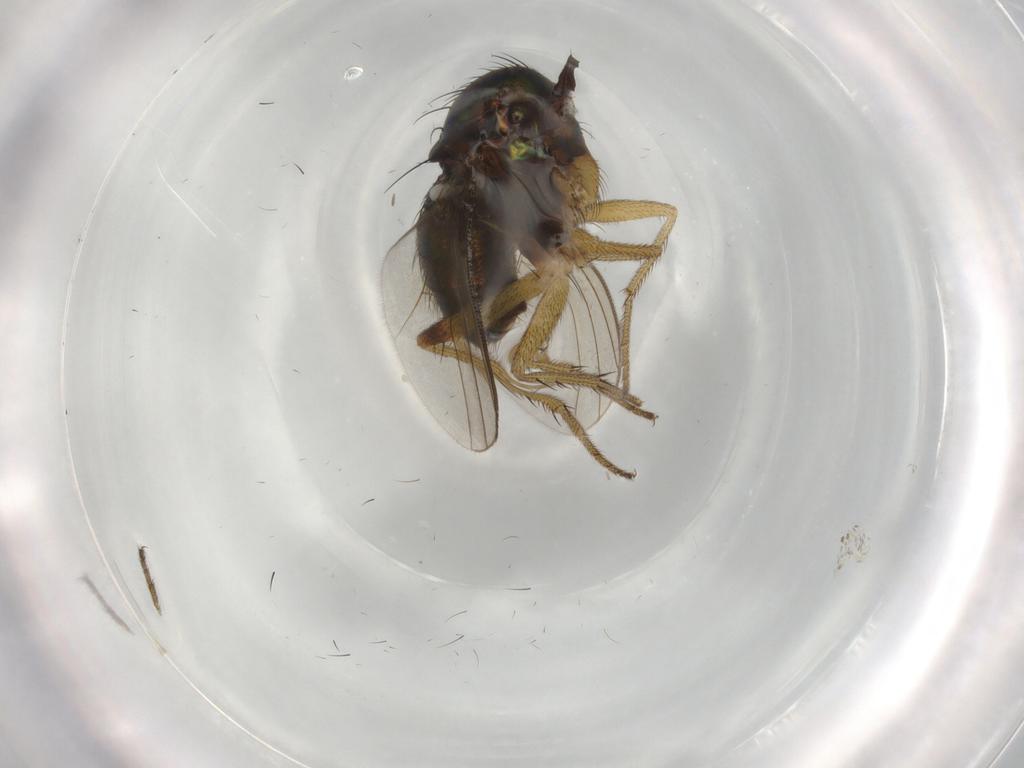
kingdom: Animalia
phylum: Arthropoda
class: Insecta
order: Diptera
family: Dolichopodidae
